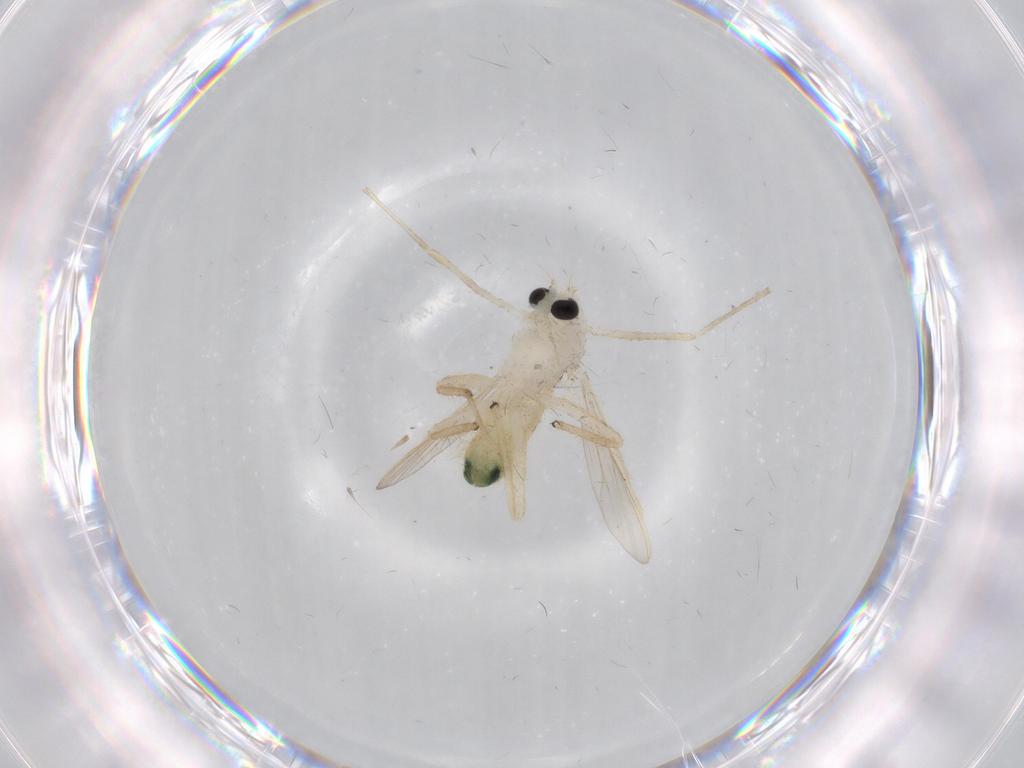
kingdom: Animalia
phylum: Arthropoda
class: Insecta
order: Diptera
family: Chironomidae
